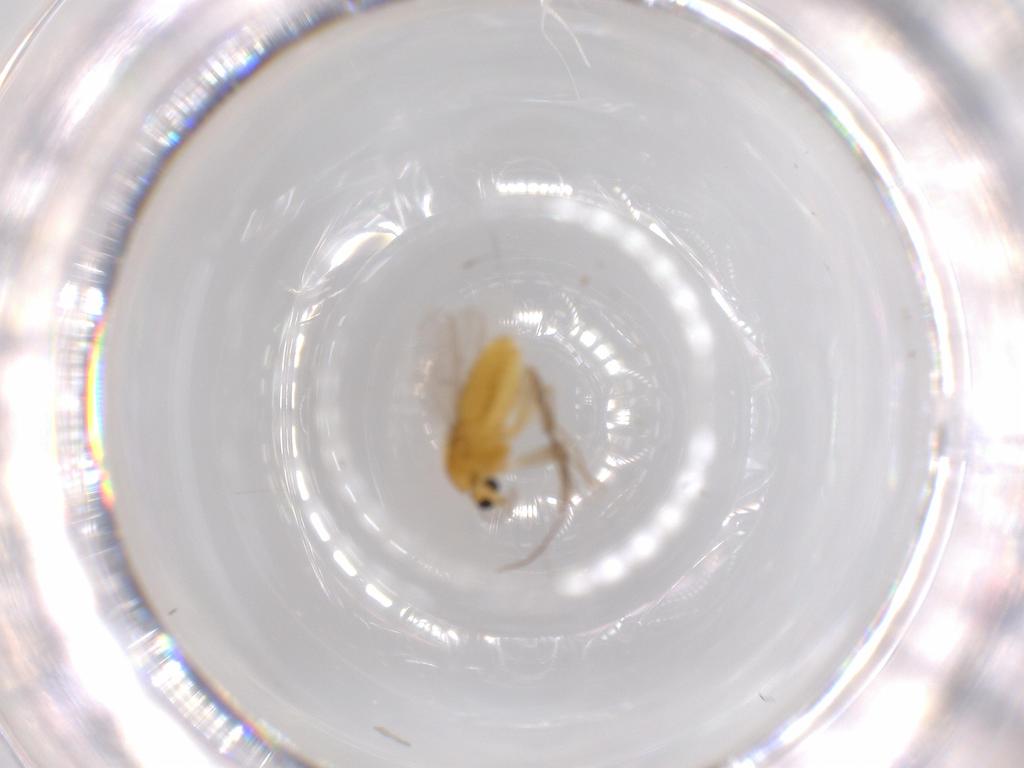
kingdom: Animalia
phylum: Arthropoda
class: Insecta
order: Diptera
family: Chironomidae
